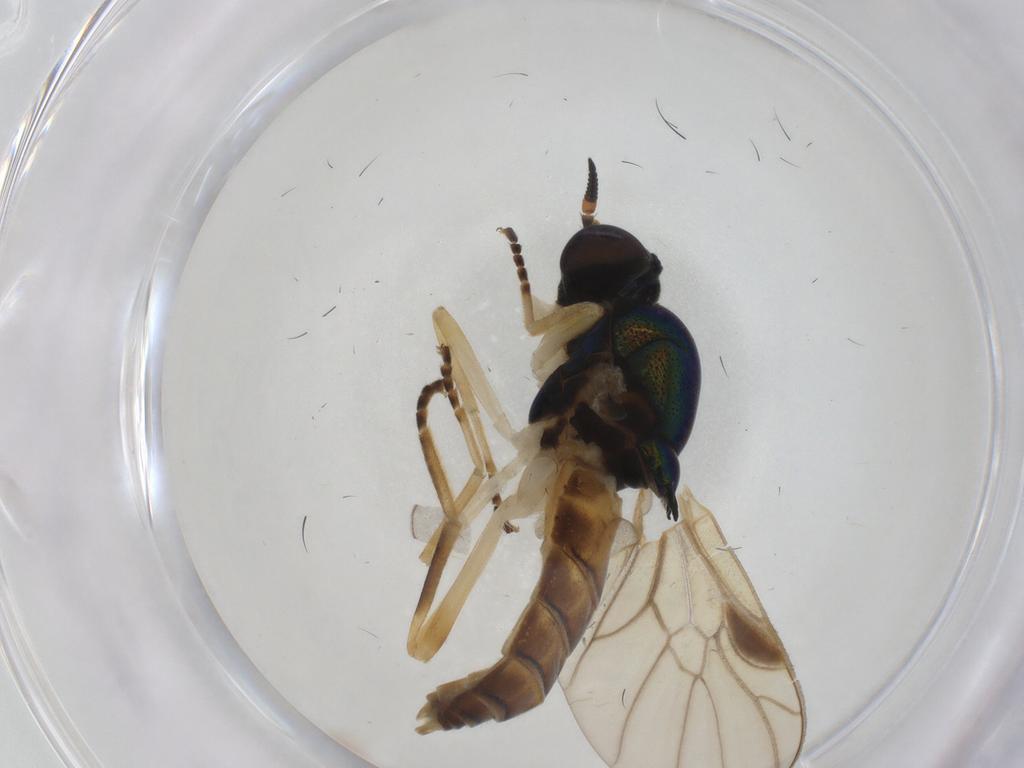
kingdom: Animalia
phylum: Arthropoda
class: Insecta
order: Diptera
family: Stratiomyidae
